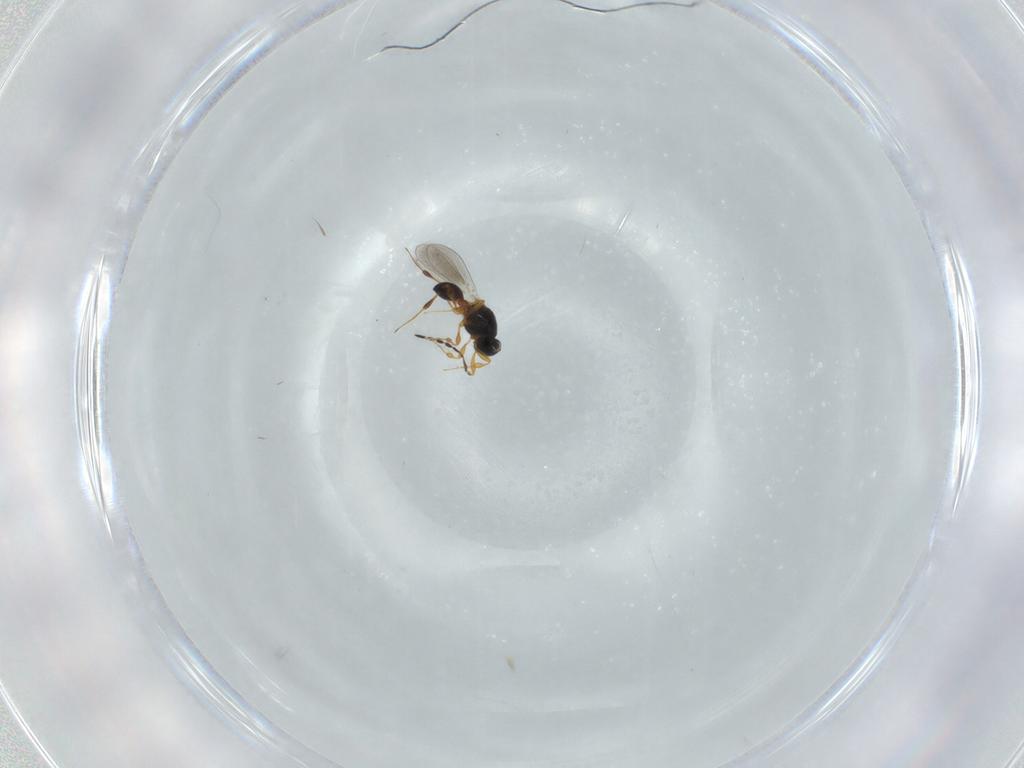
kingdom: Animalia
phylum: Arthropoda
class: Insecta
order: Hymenoptera
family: Platygastridae
